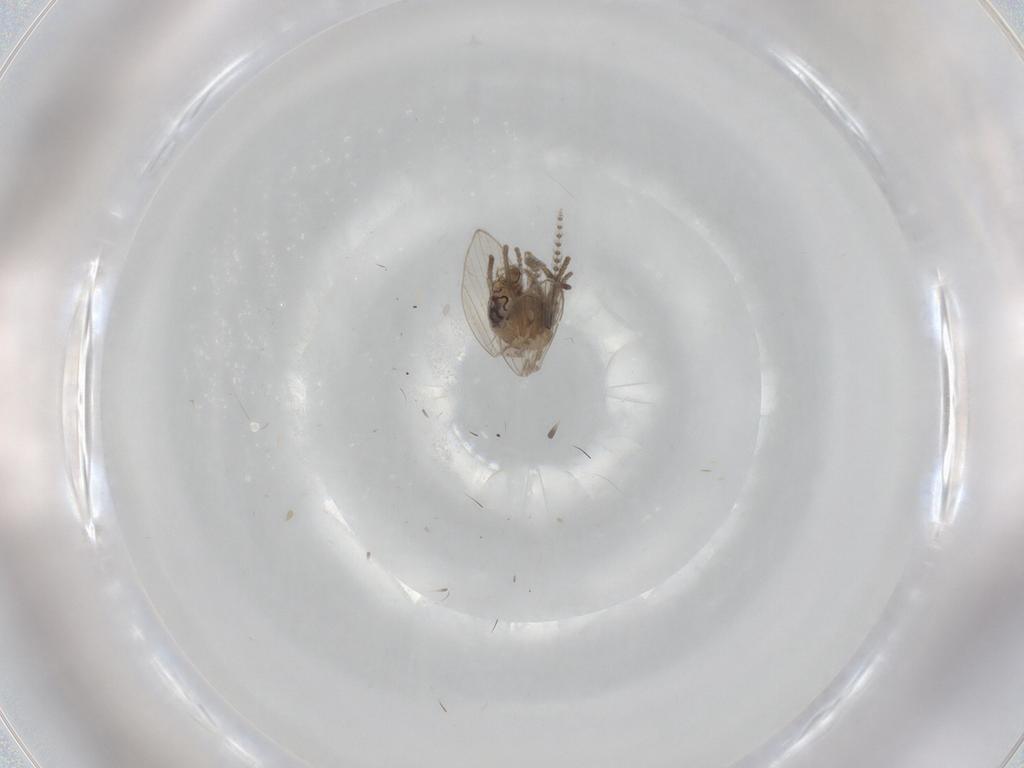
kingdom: Animalia
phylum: Arthropoda
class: Insecta
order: Diptera
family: Psychodidae
